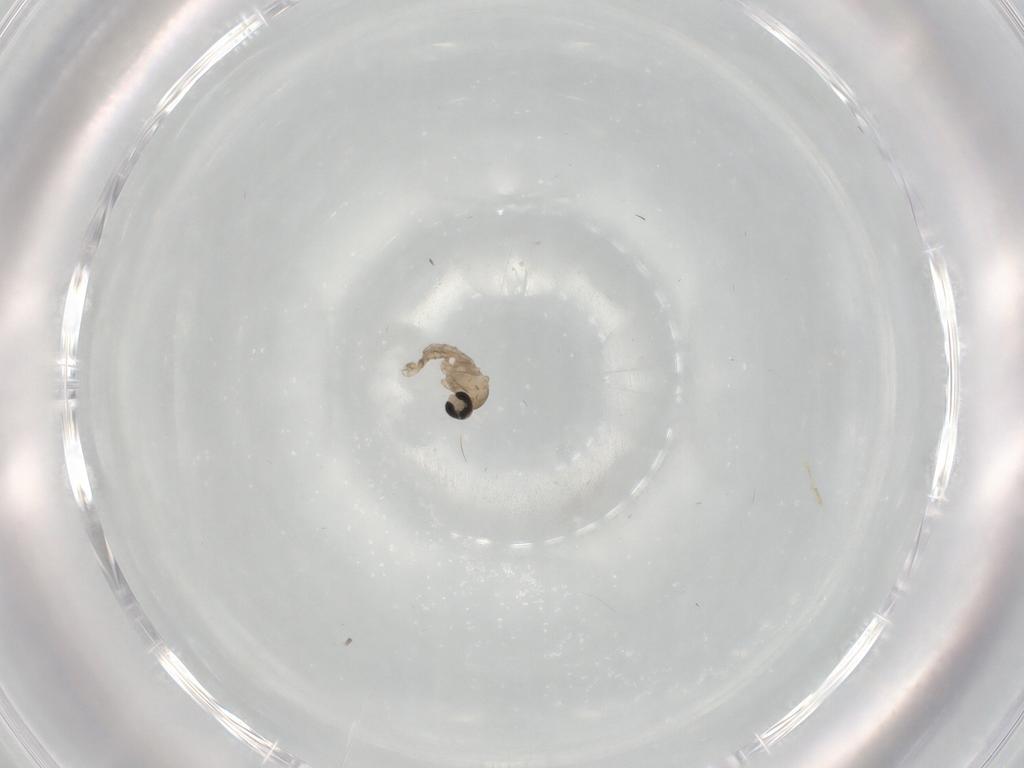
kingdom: Animalia
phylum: Arthropoda
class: Insecta
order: Diptera
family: Cecidomyiidae
